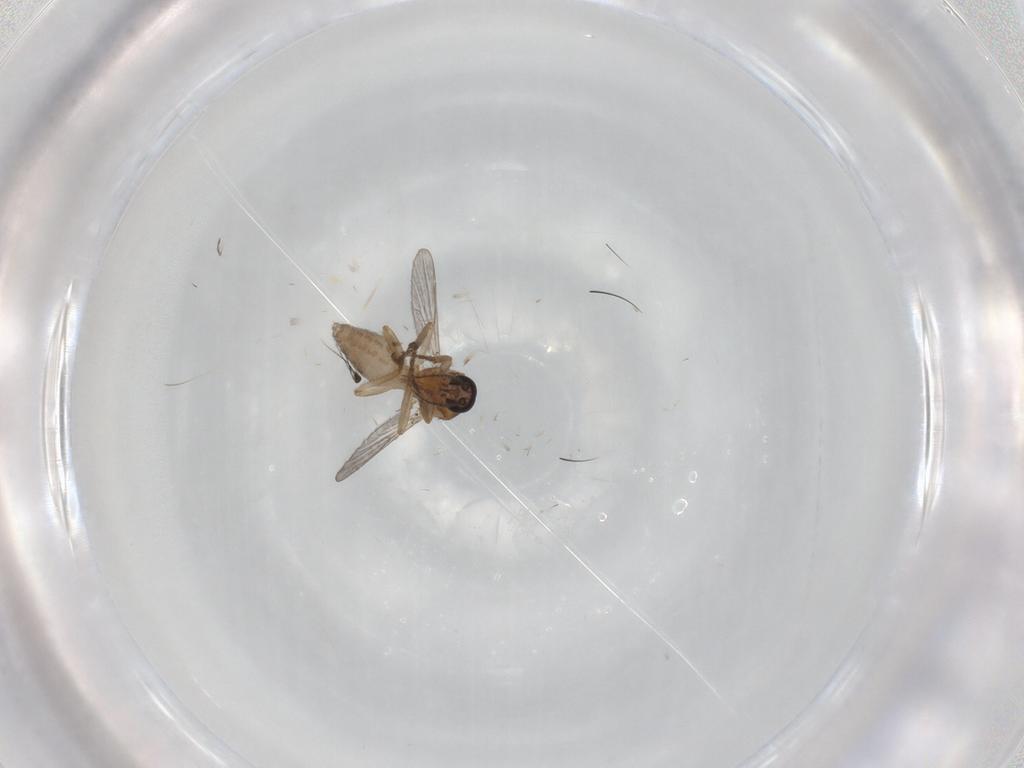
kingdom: Animalia
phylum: Arthropoda
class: Insecta
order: Diptera
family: Ceratopogonidae
